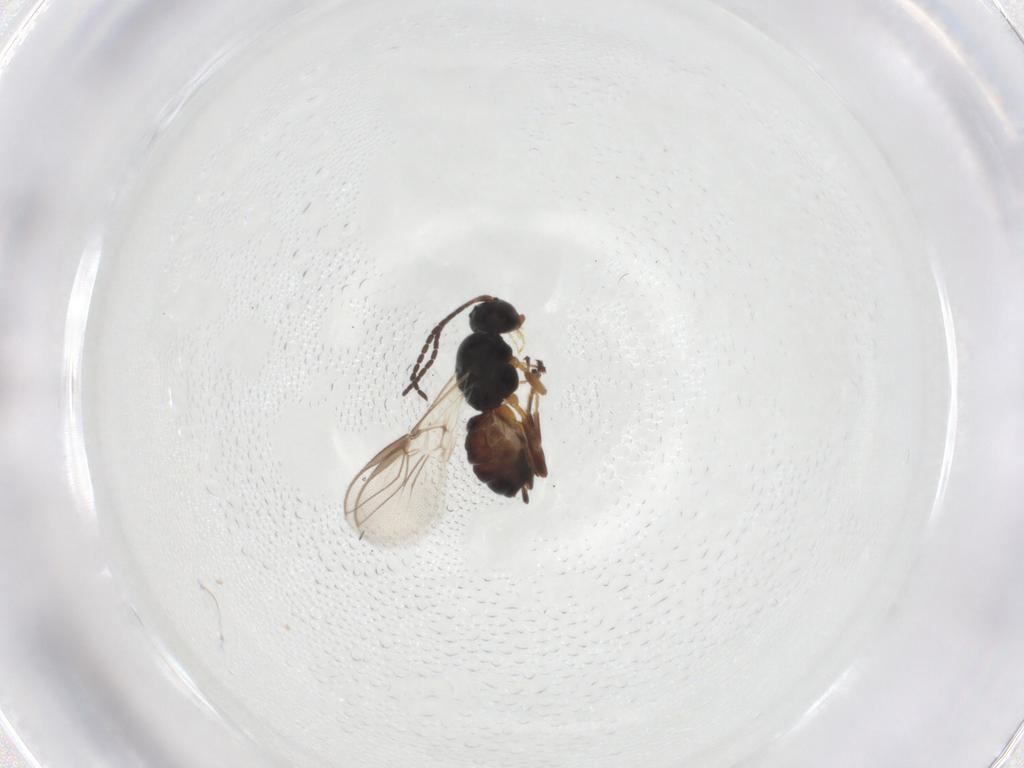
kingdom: Animalia
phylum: Arthropoda
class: Insecta
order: Hymenoptera
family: Braconidae
